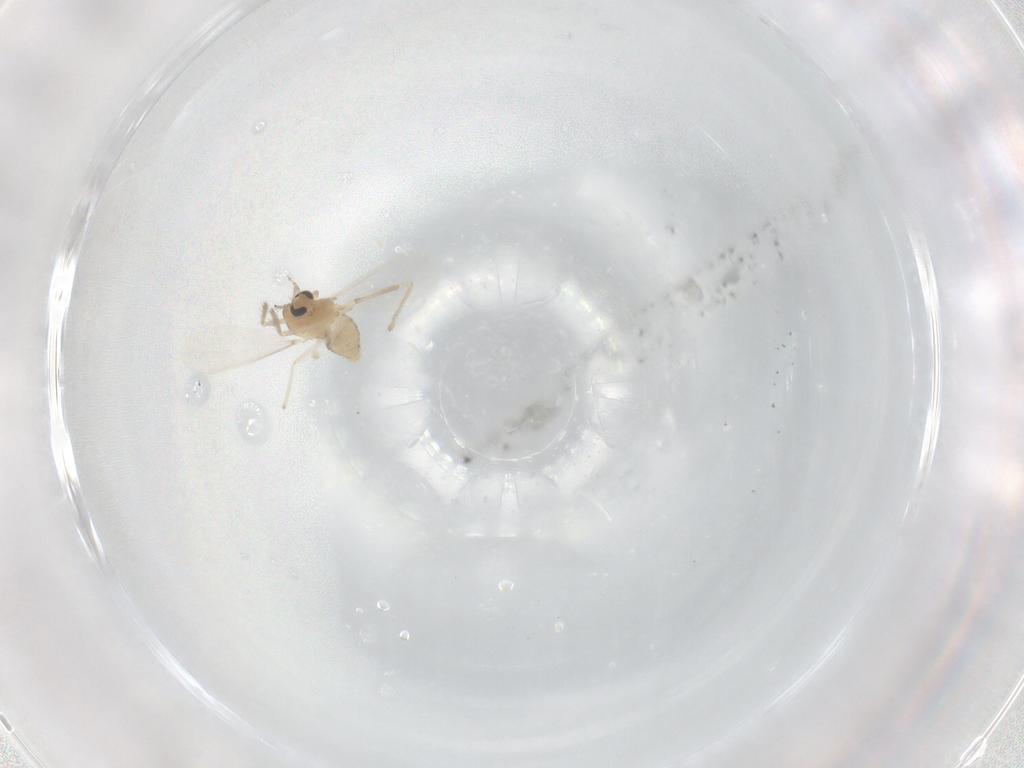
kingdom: Animalia
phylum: Arthropoda
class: Insecta
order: Diptera
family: Chironomidae
